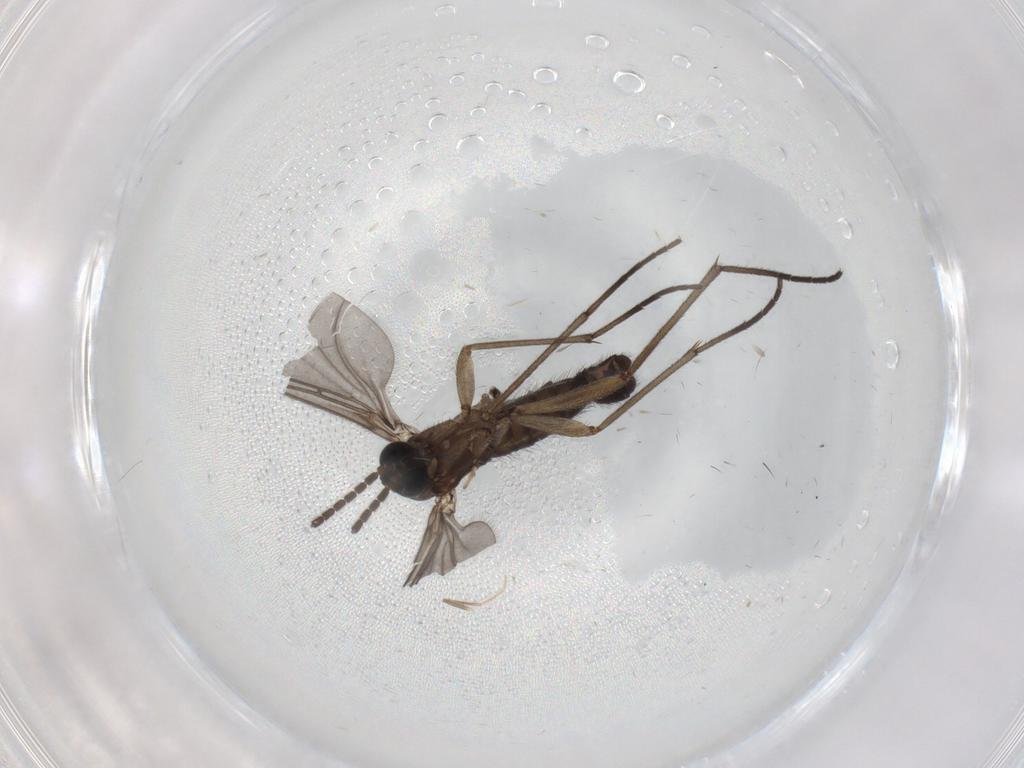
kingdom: Animalia
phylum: Arthropoda
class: Insecta
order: Diptera
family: Sciaridae
